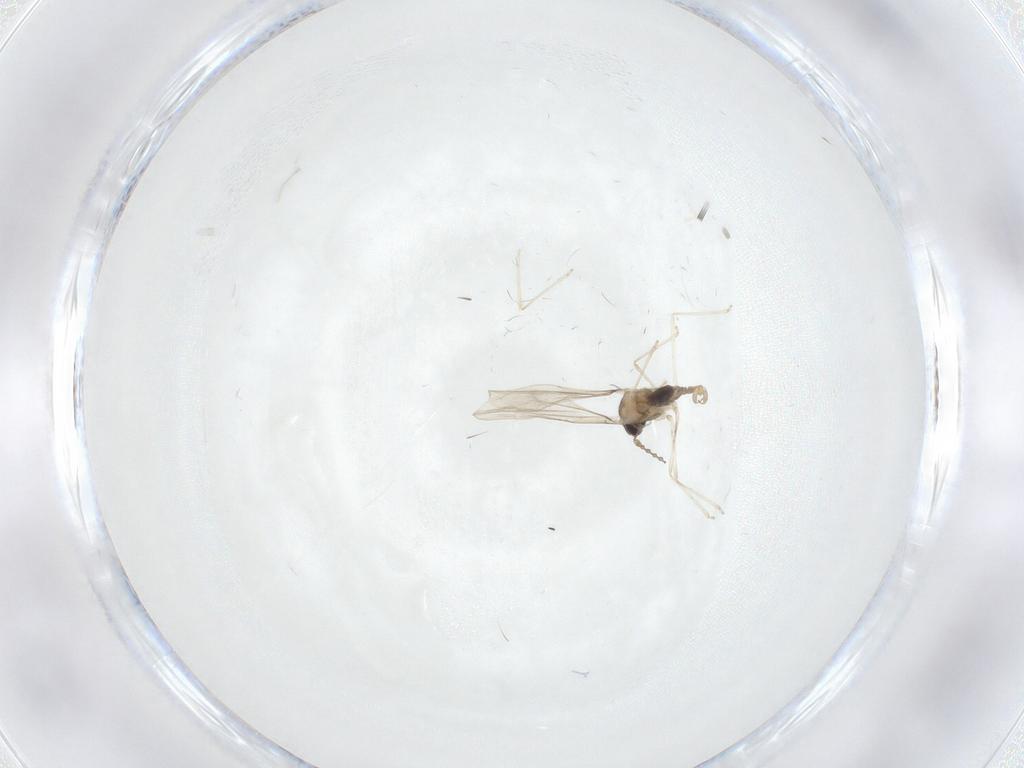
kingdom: Animalia
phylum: Arthropoda
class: Insecta
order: Diptera
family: Chironomidae
